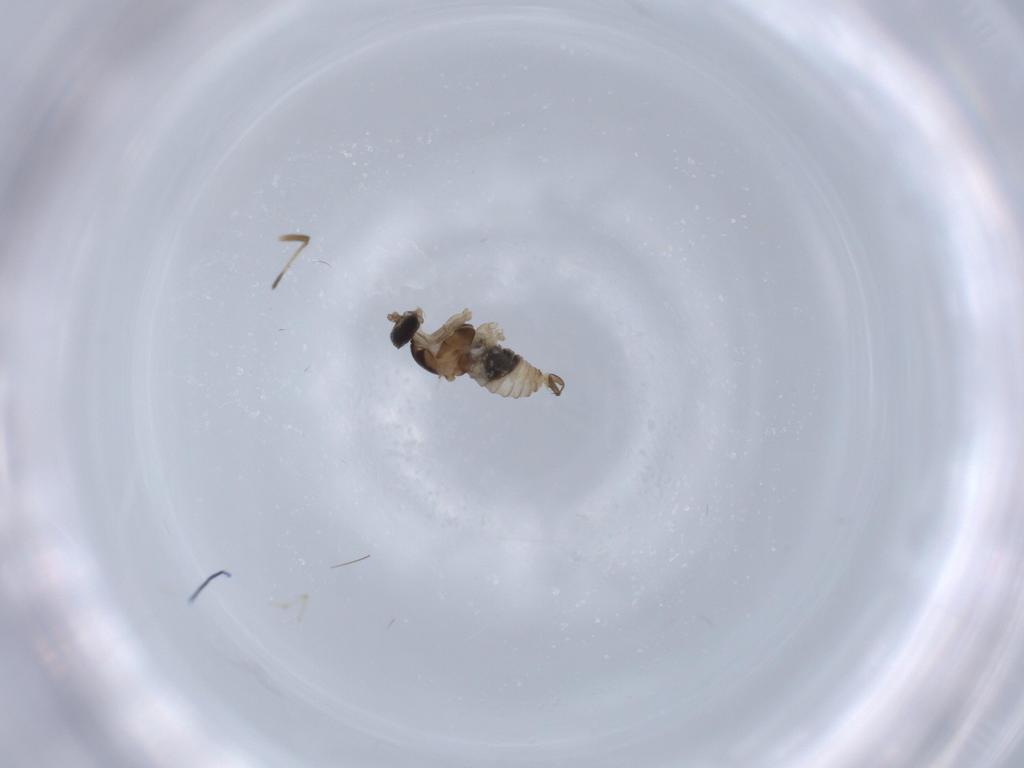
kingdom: Animalia
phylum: Arthropoda
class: Insecta
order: Diptera
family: Cecidomyiidae
